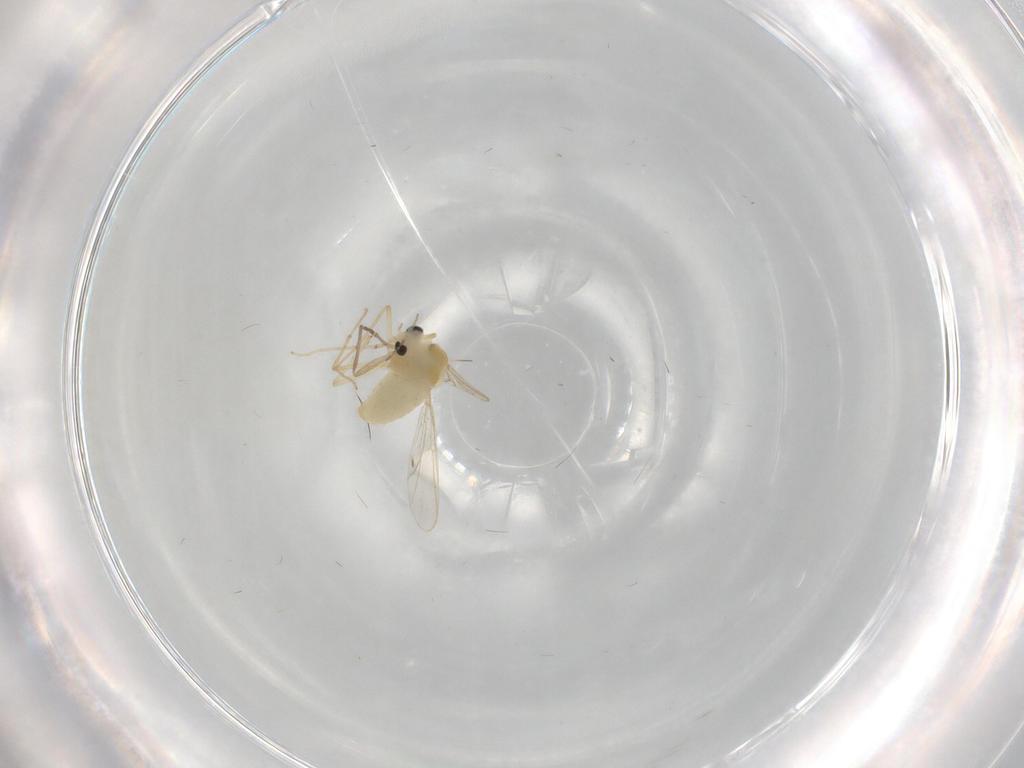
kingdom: Animalia
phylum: Arthropoda
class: Insecta
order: Diptera
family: Chironomidae
